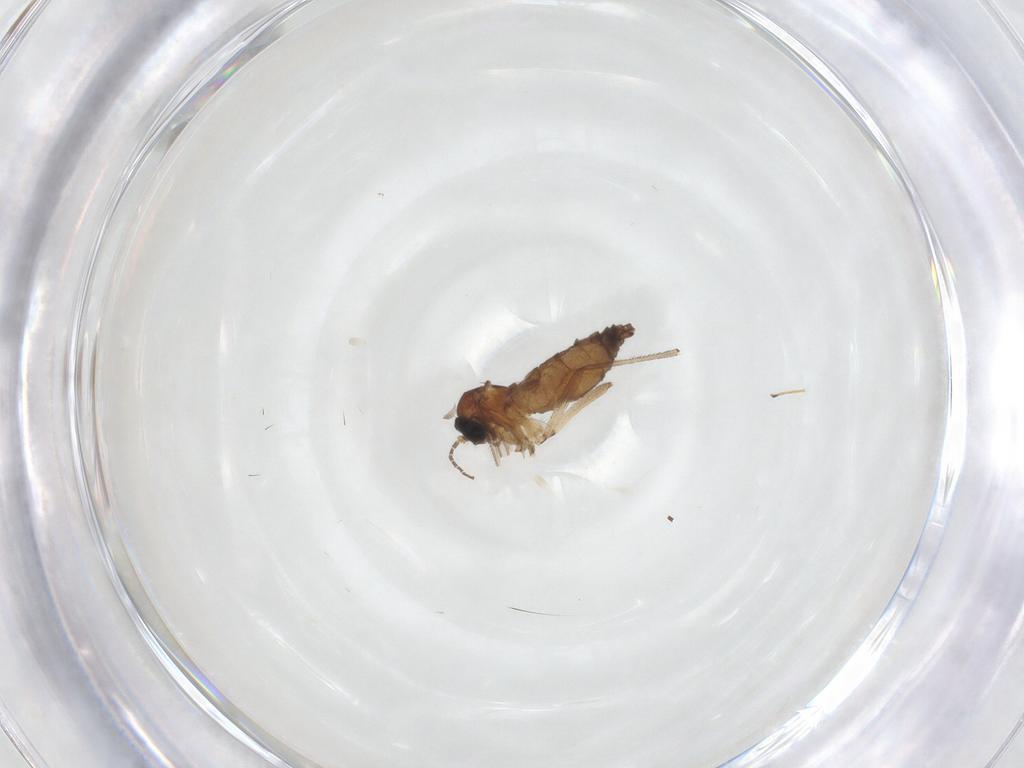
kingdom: Animalia
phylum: Arthropoda
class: Insecta
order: Diptera
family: Sciaridae
